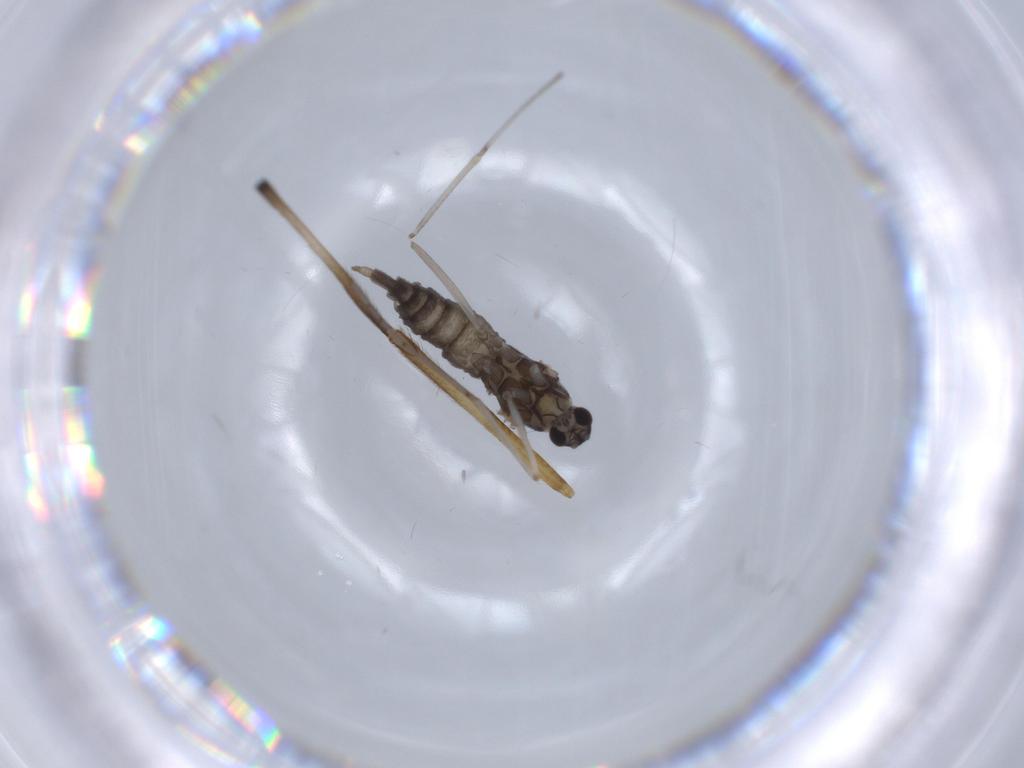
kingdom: Animalia
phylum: Arthropoda
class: Insecta
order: Diptera
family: Chironomidae
